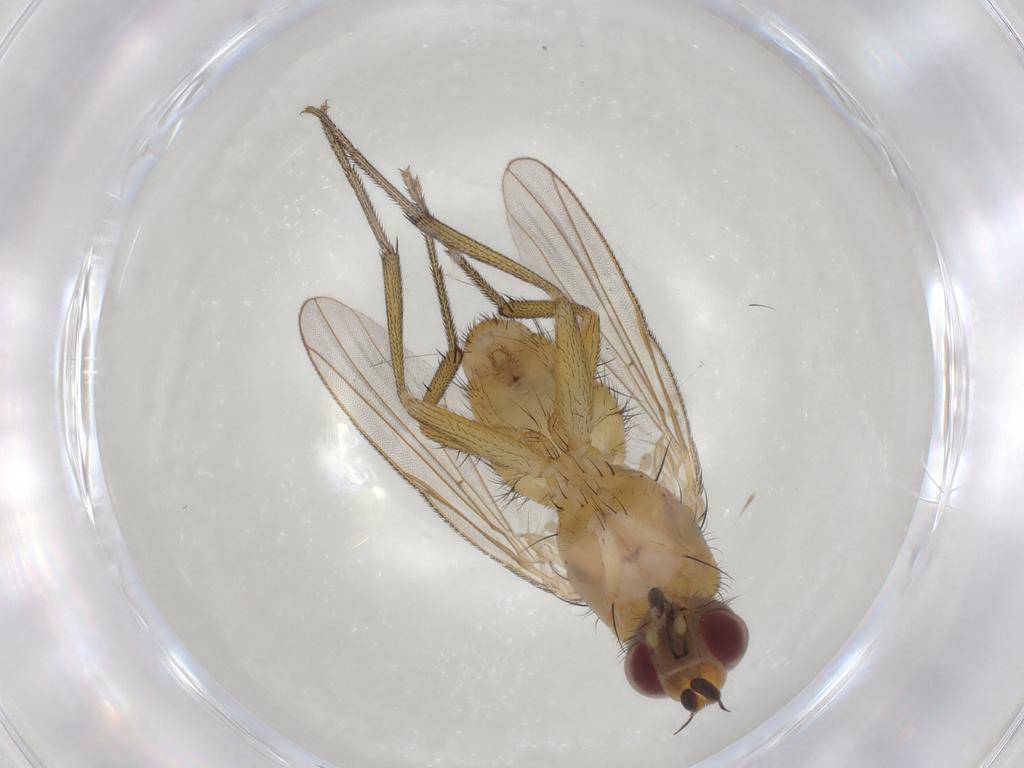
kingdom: Animalia
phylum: Arthropoda
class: Insecta
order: Diptera
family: Muscidae
